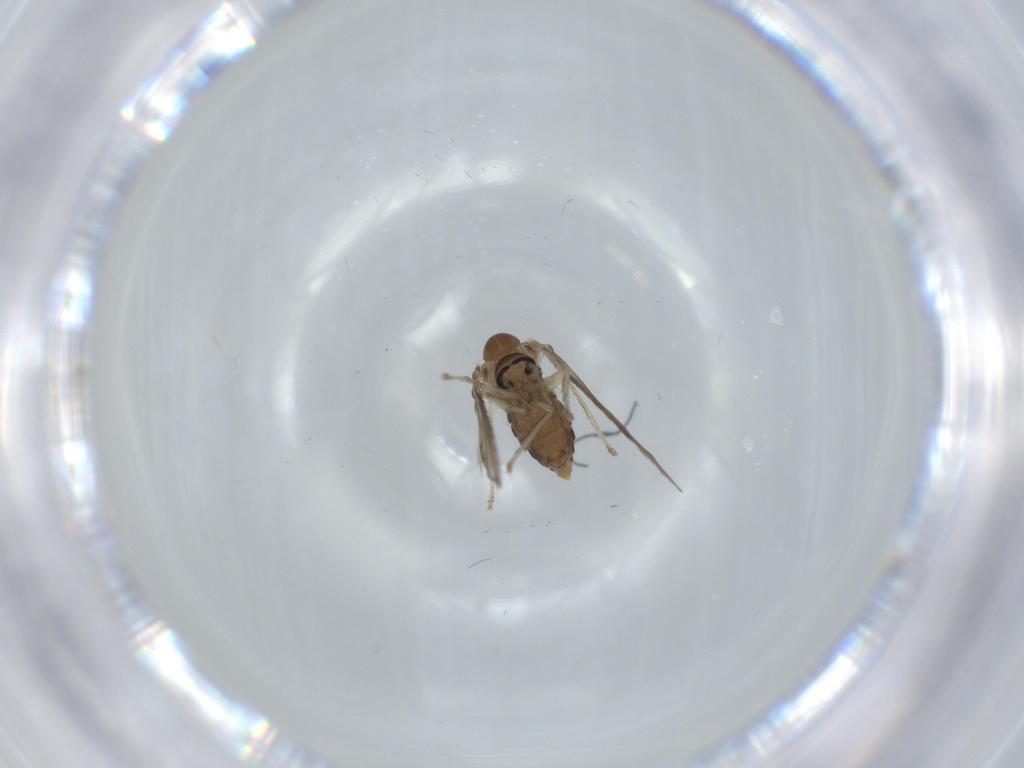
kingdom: Animalia
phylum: Arthropoda
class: Insecta
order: Diptera
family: Psychodidae
